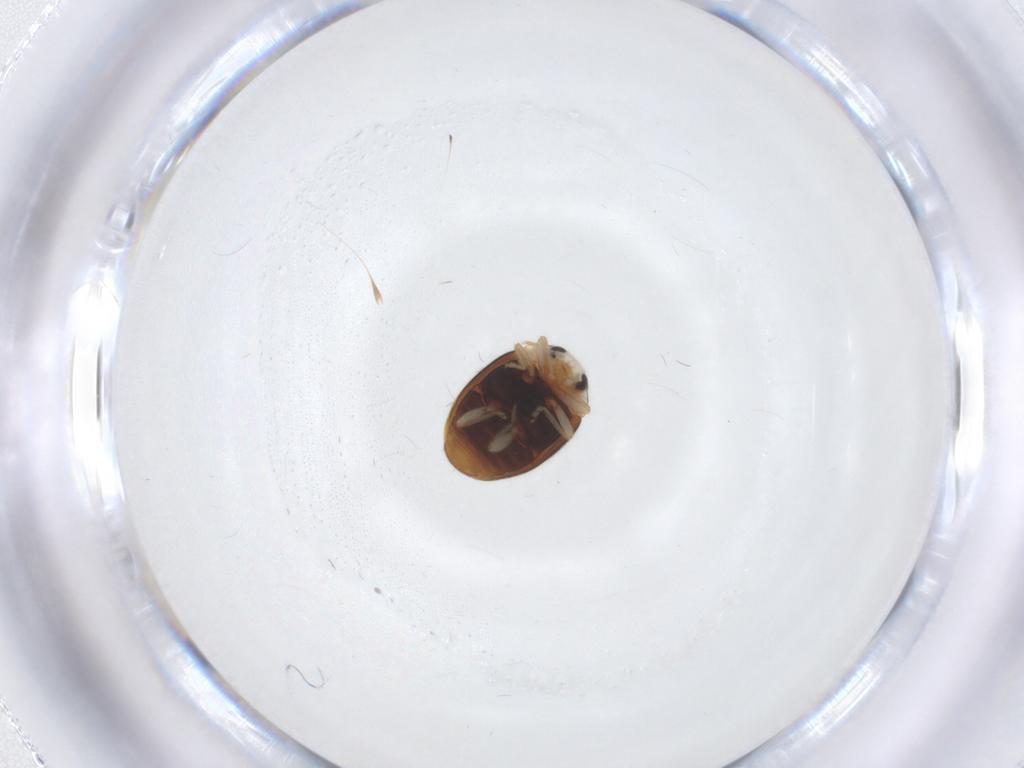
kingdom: Animalia
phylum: Arthropoda
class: Insecta
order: Coleoptera
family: Coccinellidae
